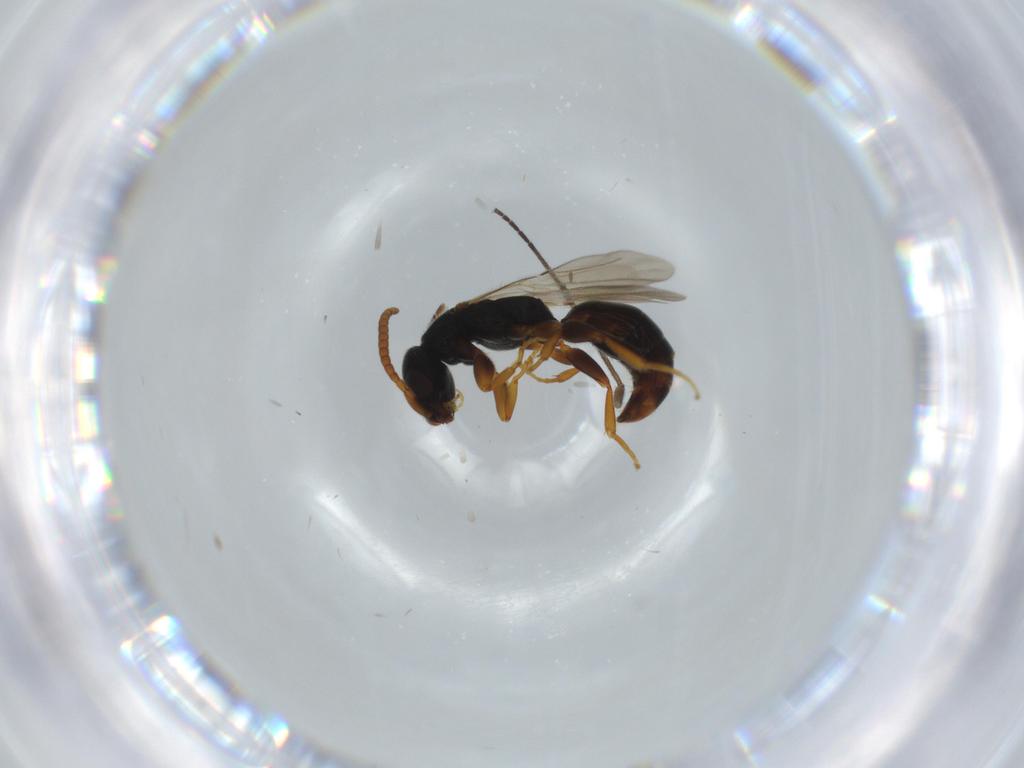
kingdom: Animalia
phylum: Arthropoda
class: Insecta
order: Hymenoptera
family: Bethylidae
